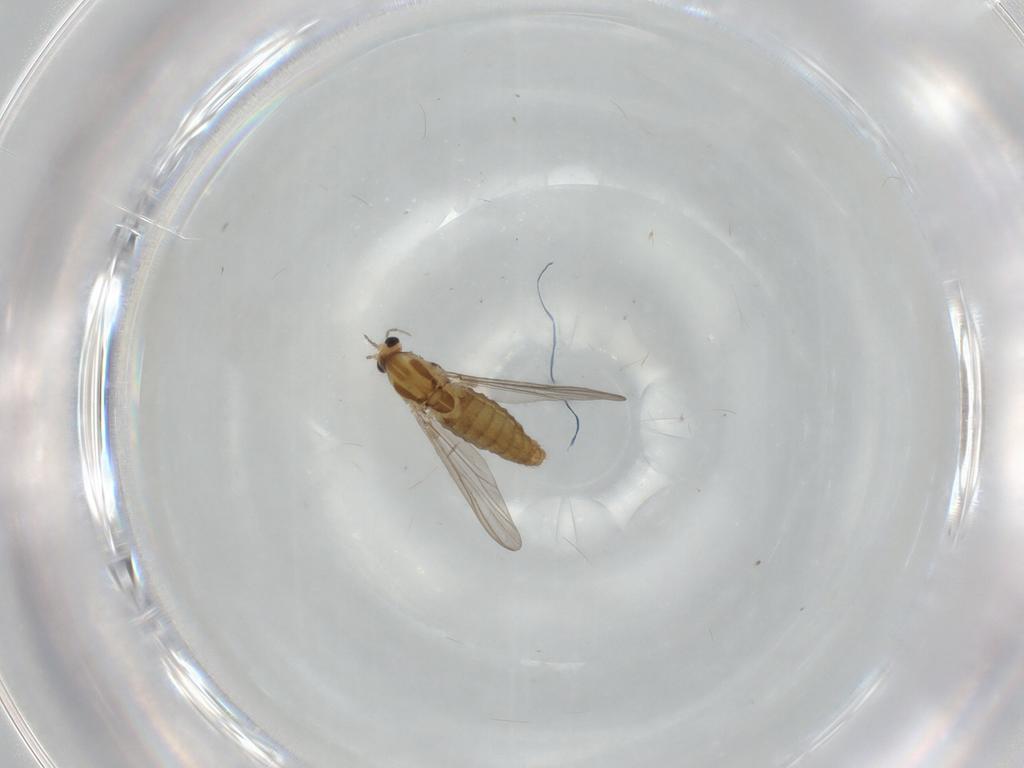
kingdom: Animalia
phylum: Arthropoda
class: Insecta
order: Diptera
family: Chironomidae
